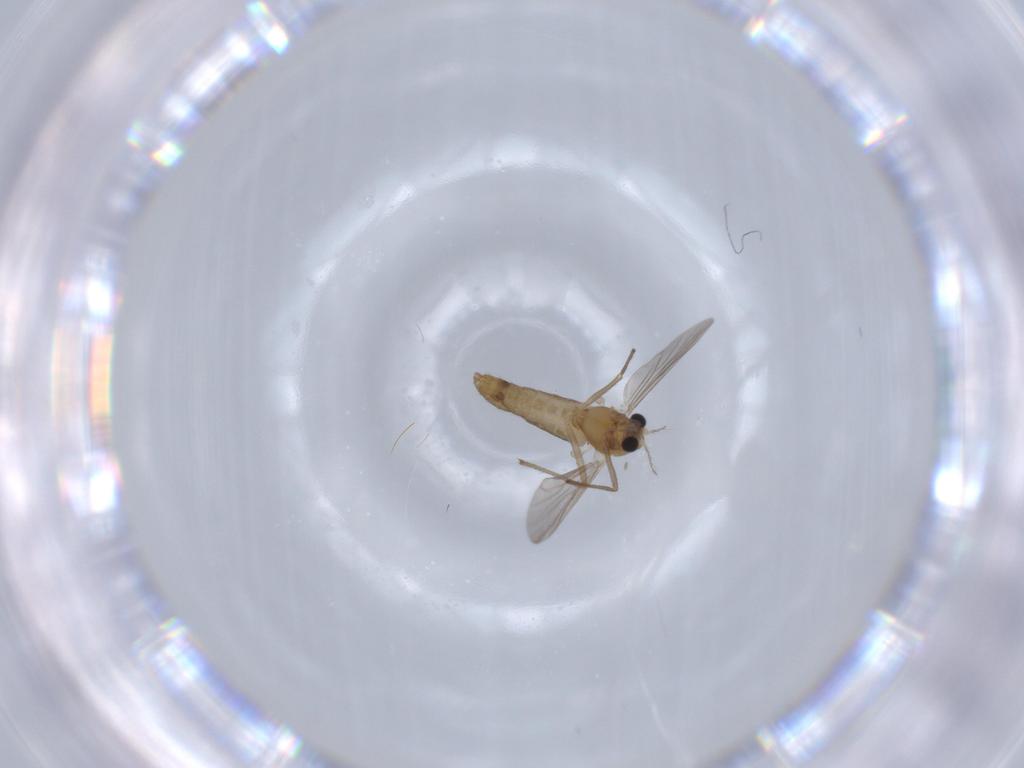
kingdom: Animalia
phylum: Arthropoda
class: Insecta
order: Diptera
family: Chironomidae
